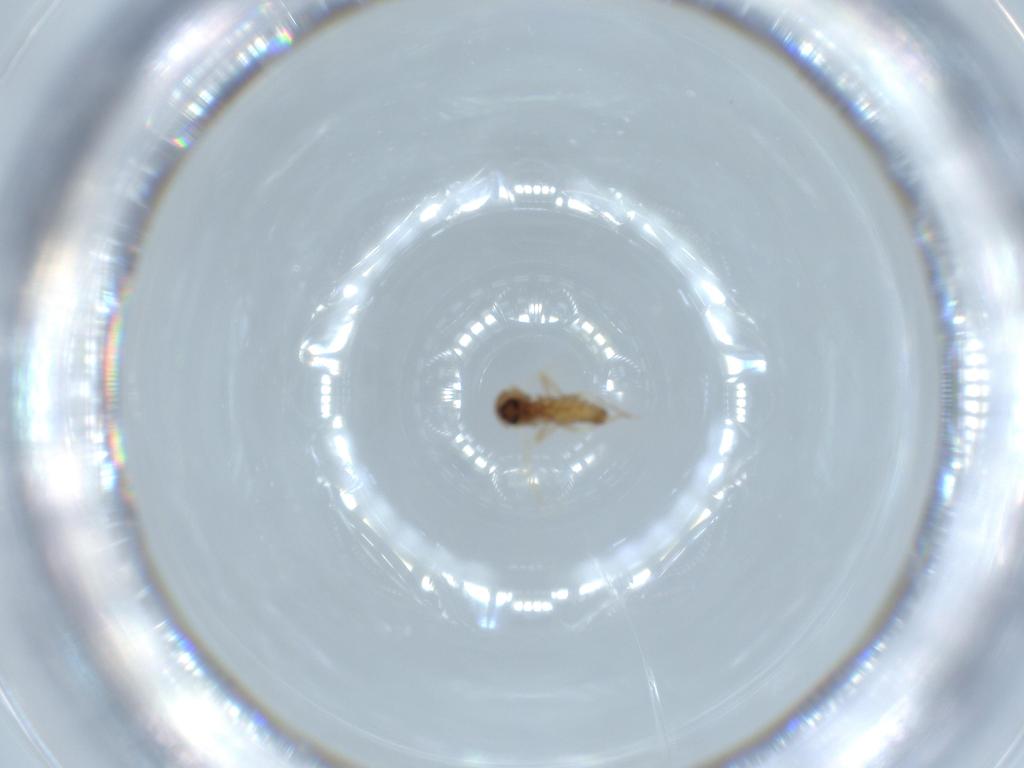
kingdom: Animalia
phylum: Arthropoda
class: Insecta
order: Diptera
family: Ceratopogonidae
